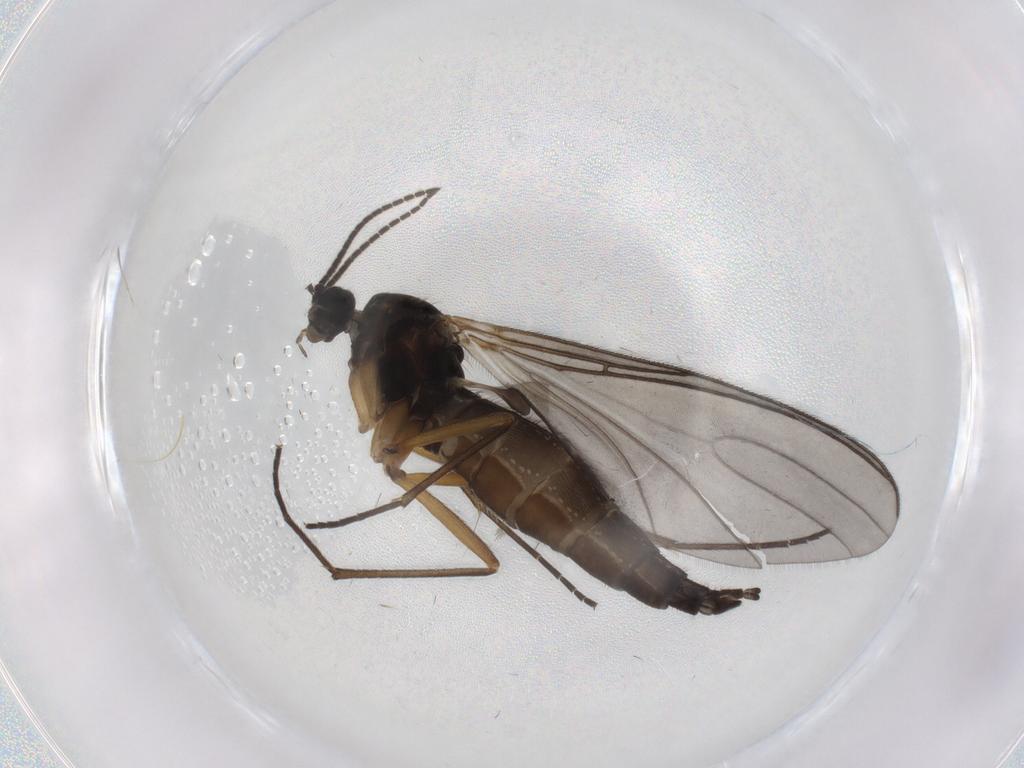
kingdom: Animalia
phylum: Arthropoda
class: Insecta
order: Diptera
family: Sciaridae
